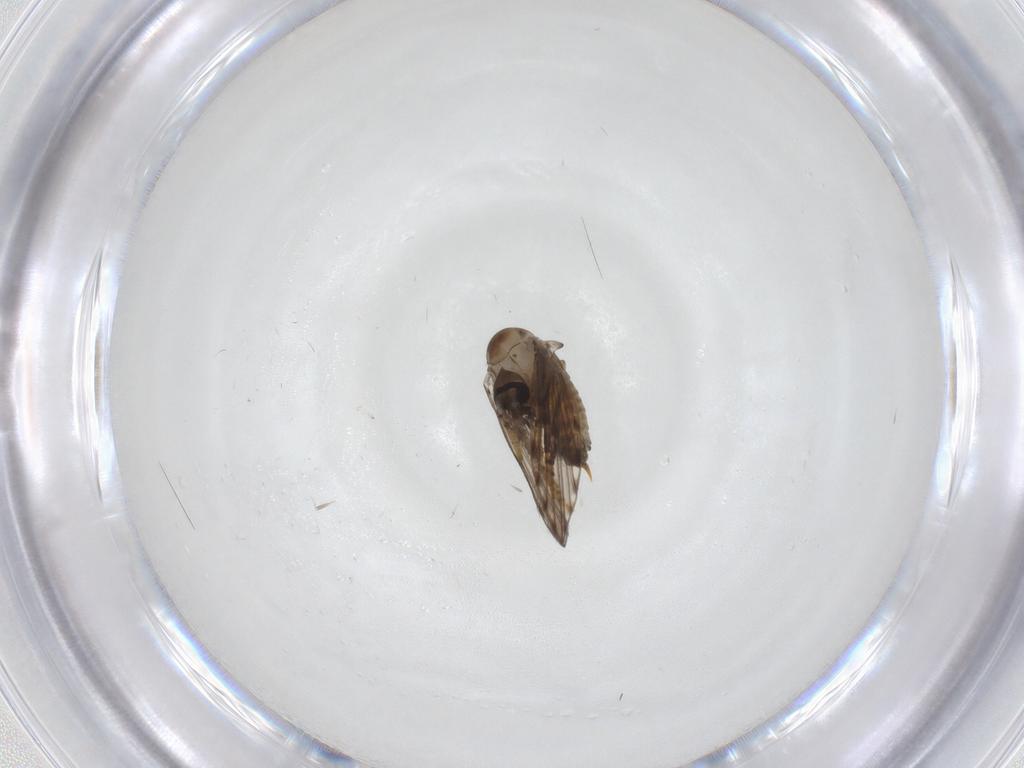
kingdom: Animalia
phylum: Arthropoda
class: Insecta
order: Diptera
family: Psychodidae
